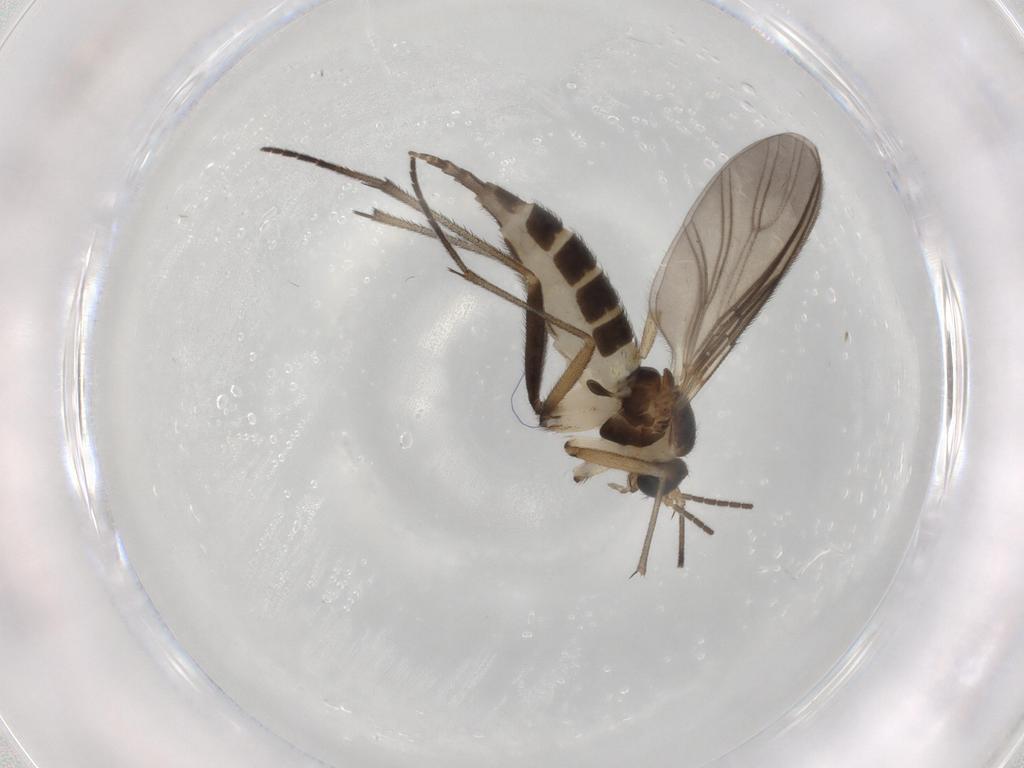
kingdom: Animalia
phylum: Arthropoda
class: Insecta
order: Diptera
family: Sciaridae
